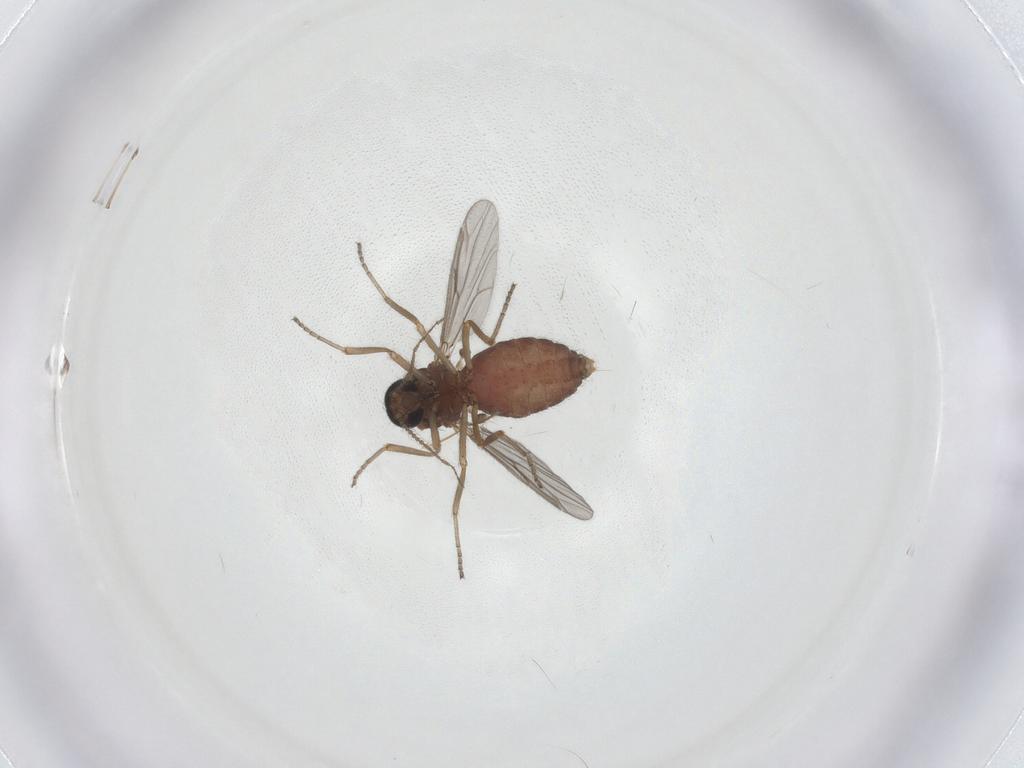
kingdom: Animalia
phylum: Arthropoda
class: Insecta
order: Diptera
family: Ceratopogonidae
